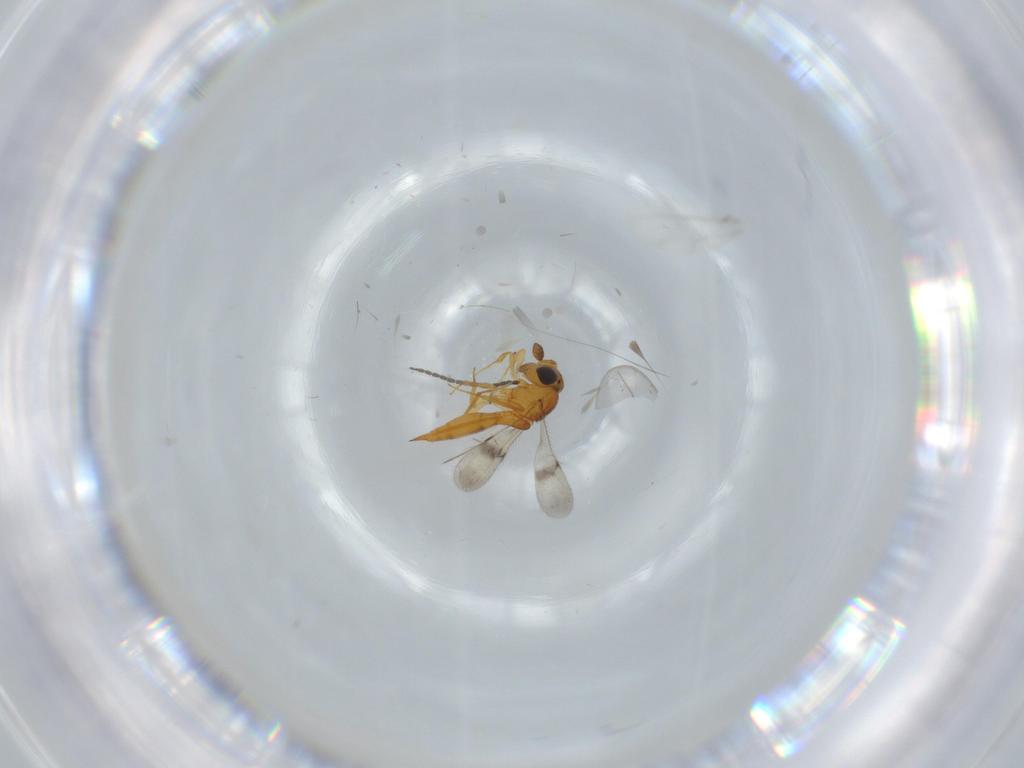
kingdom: Animalia
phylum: Arthropoda
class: Insecta
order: Hymenoptera
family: Scelionidae
